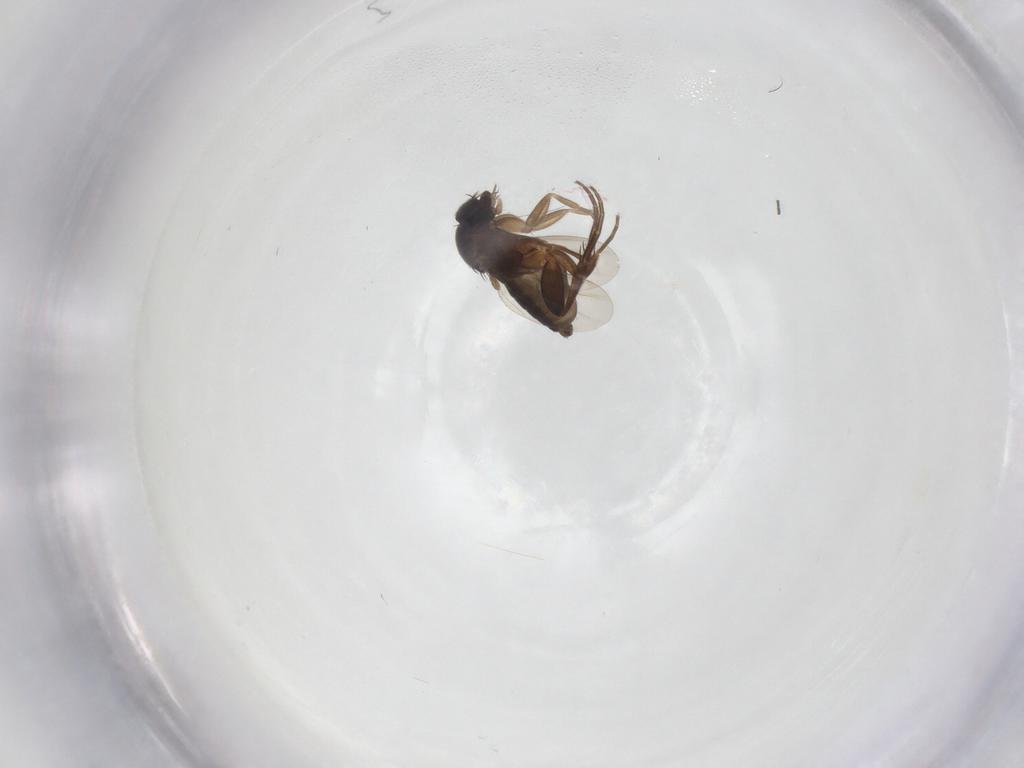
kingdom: Animalia
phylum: Arthropoda
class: Insecta
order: Diptera
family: Phoridae
